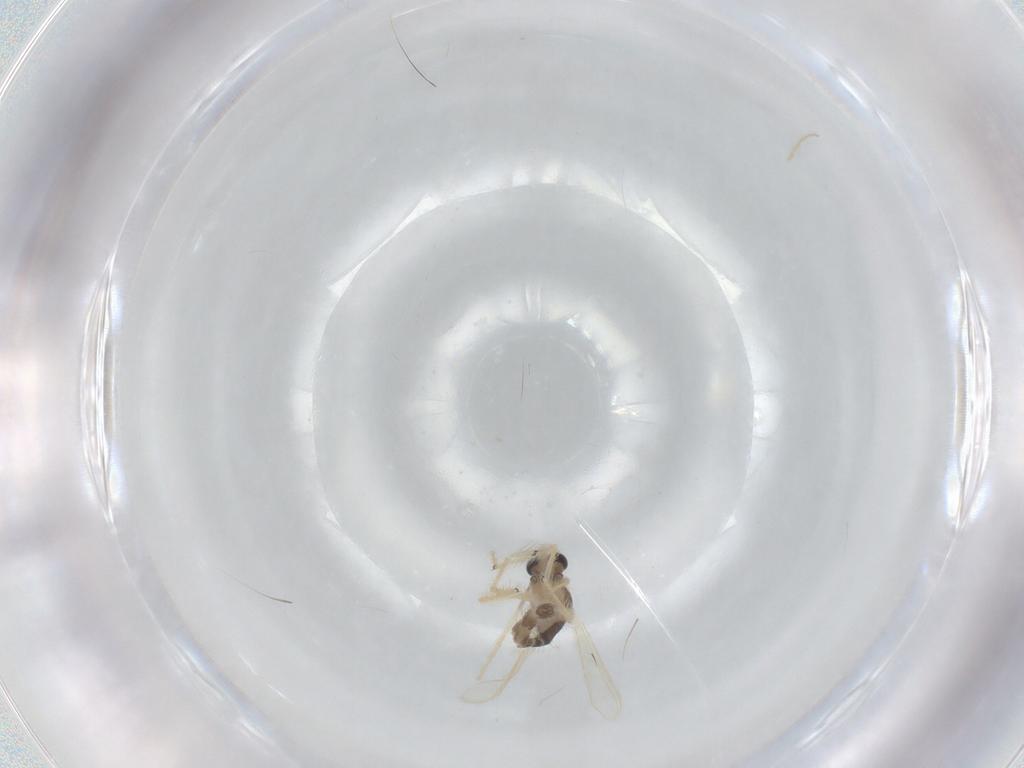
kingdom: Animalia
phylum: Arthropoda
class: Insecta
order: Diptera
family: Chironomidae
